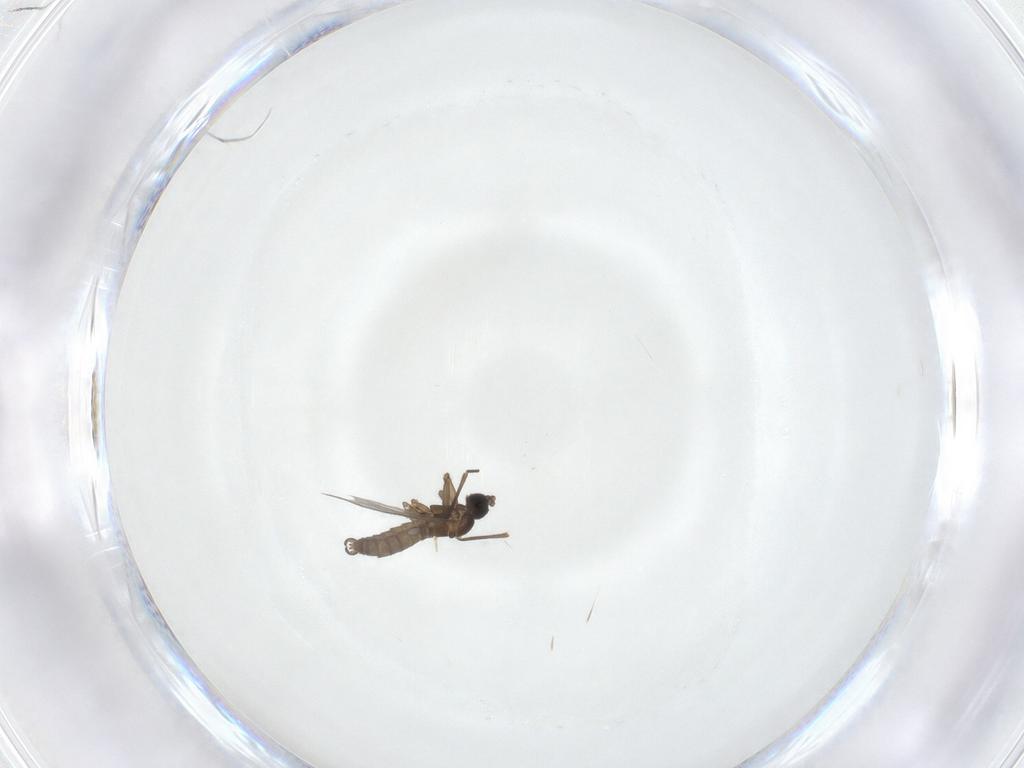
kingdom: Animalia
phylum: Arthropoda
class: Insecta
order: Diptera
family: Sciaridae
